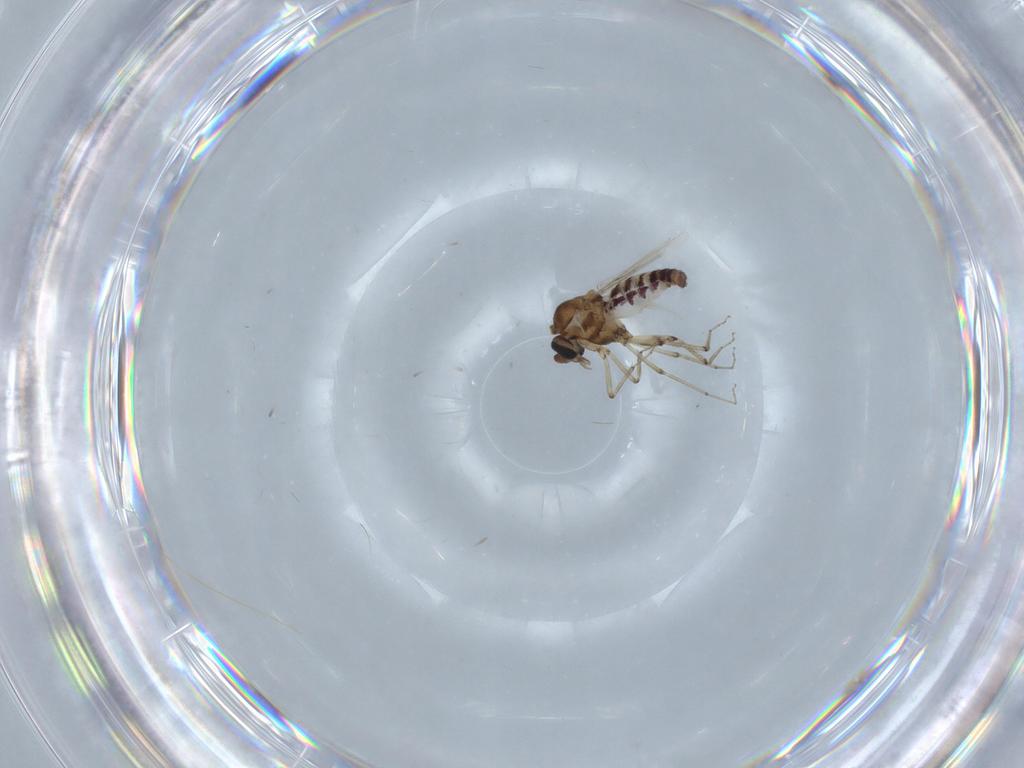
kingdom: Animalia
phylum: Arthropoda
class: Insecta
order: Diptera
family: Ceratopogonidae
